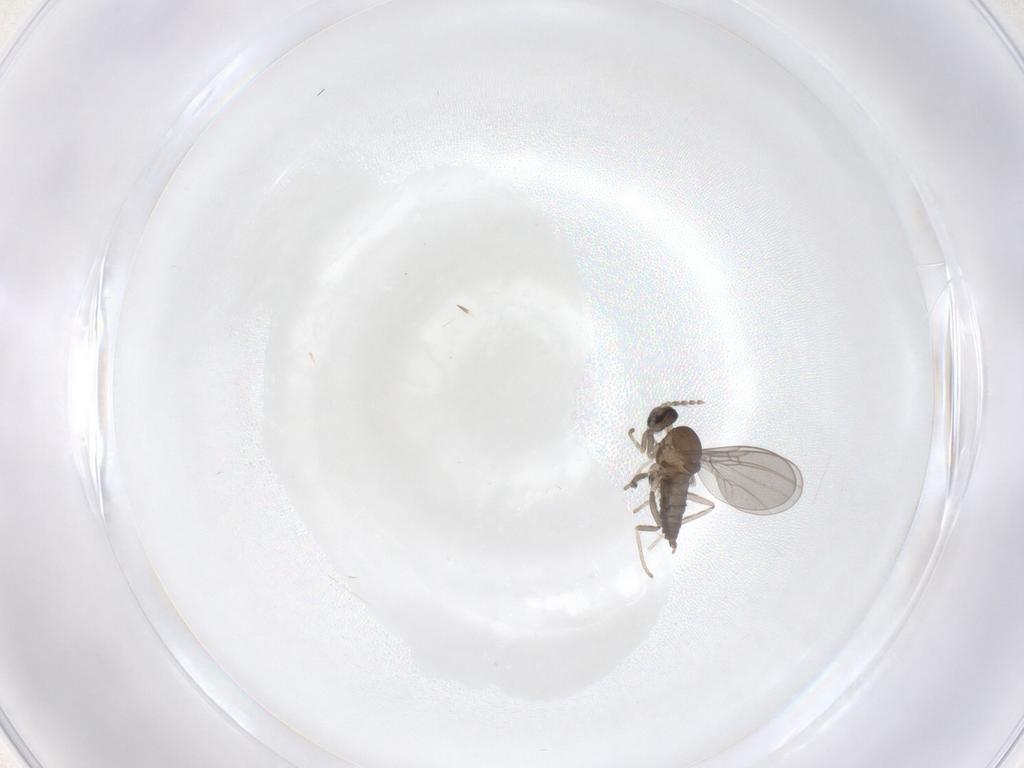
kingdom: Animalia
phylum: Arthropoda
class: Insecta
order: Diptera
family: Cecidomyiidae
